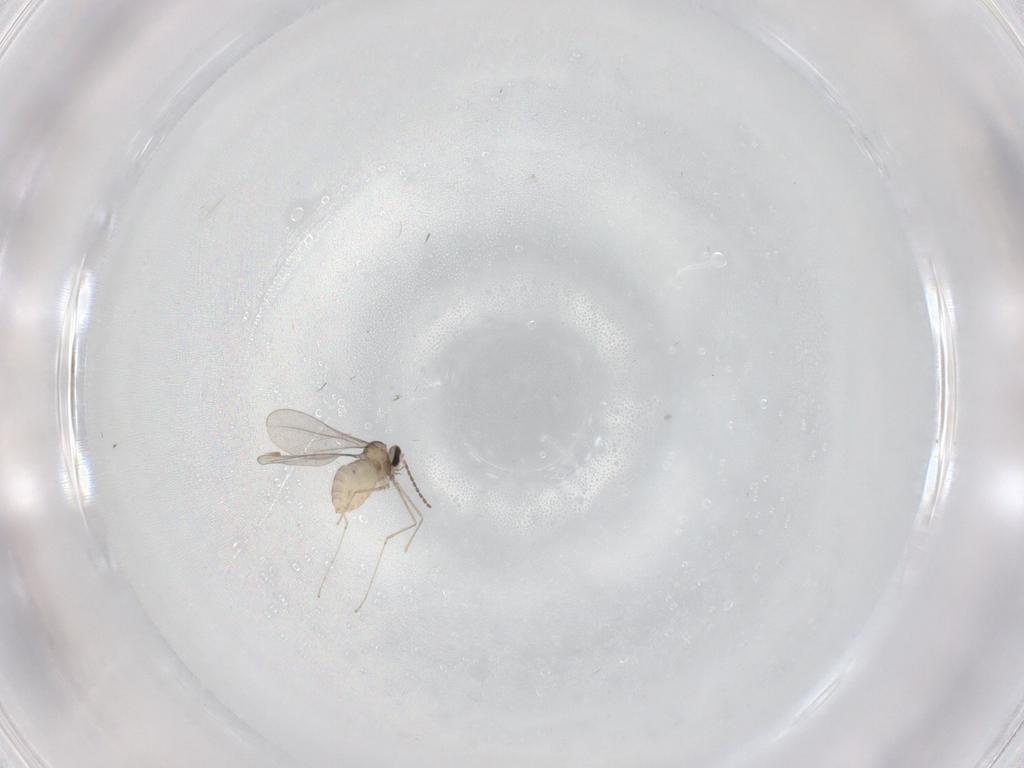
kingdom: Animalia
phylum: Arthropoda
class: Insecta
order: Diptera
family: Cecidomyiidae
